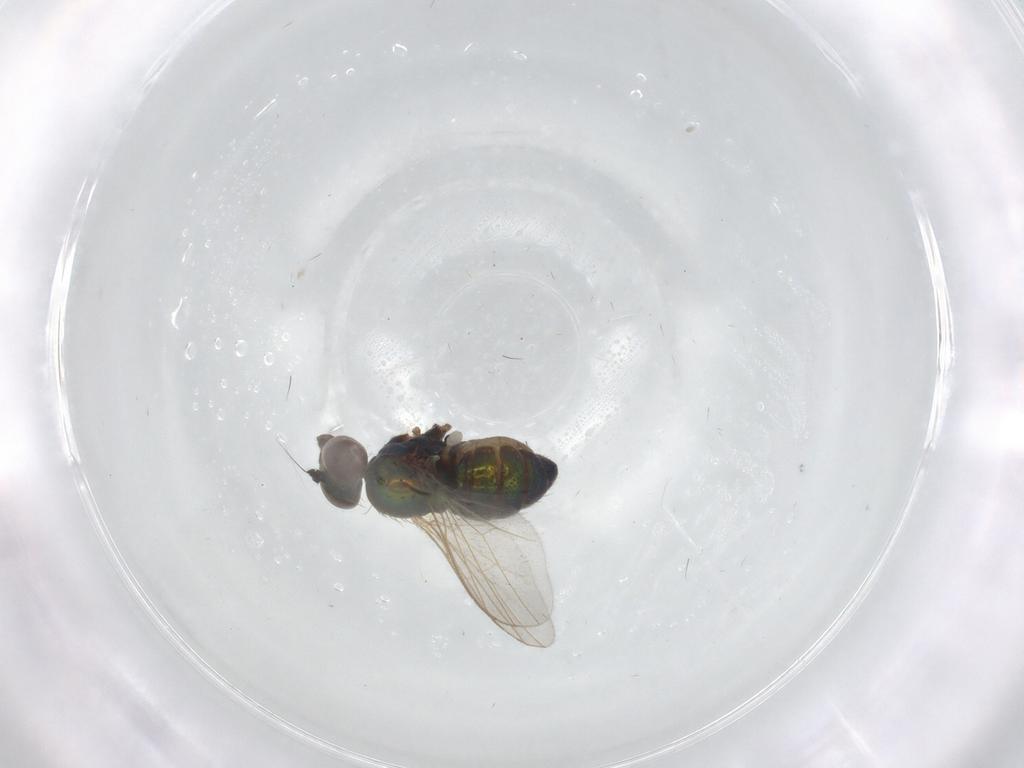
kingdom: Animalia
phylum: Arthropoda
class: Insecta
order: Diptera
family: Dolichopodidae
